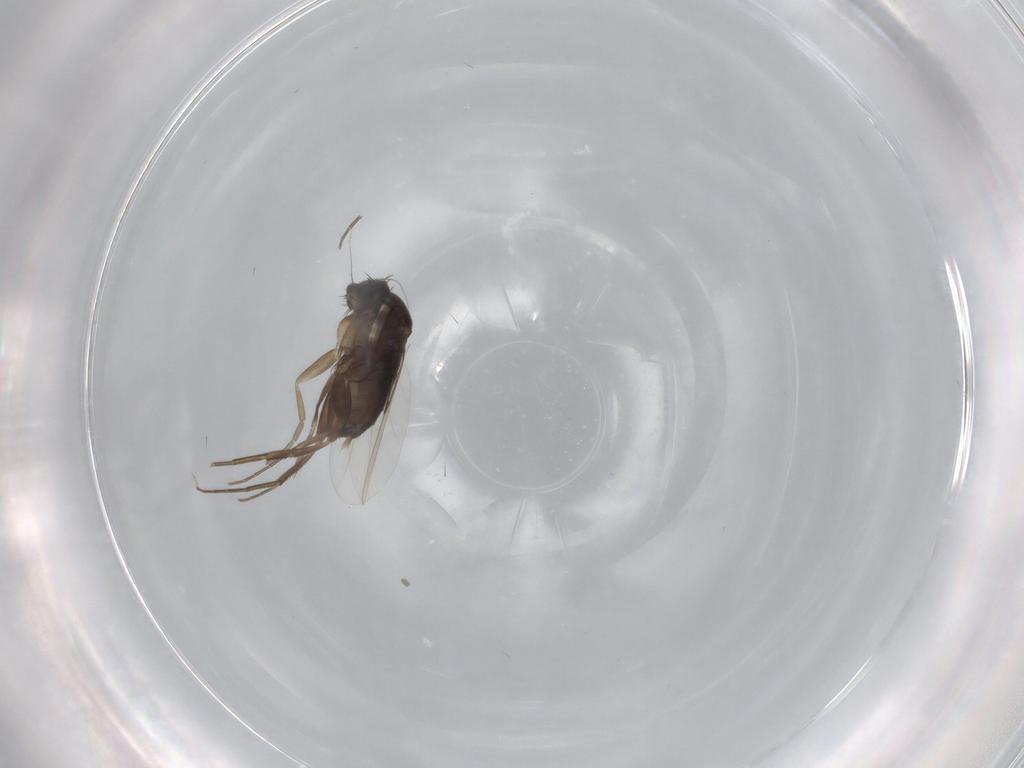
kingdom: Animalia
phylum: Arthropoda
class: Insecta
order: Diptera
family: Phoridae
